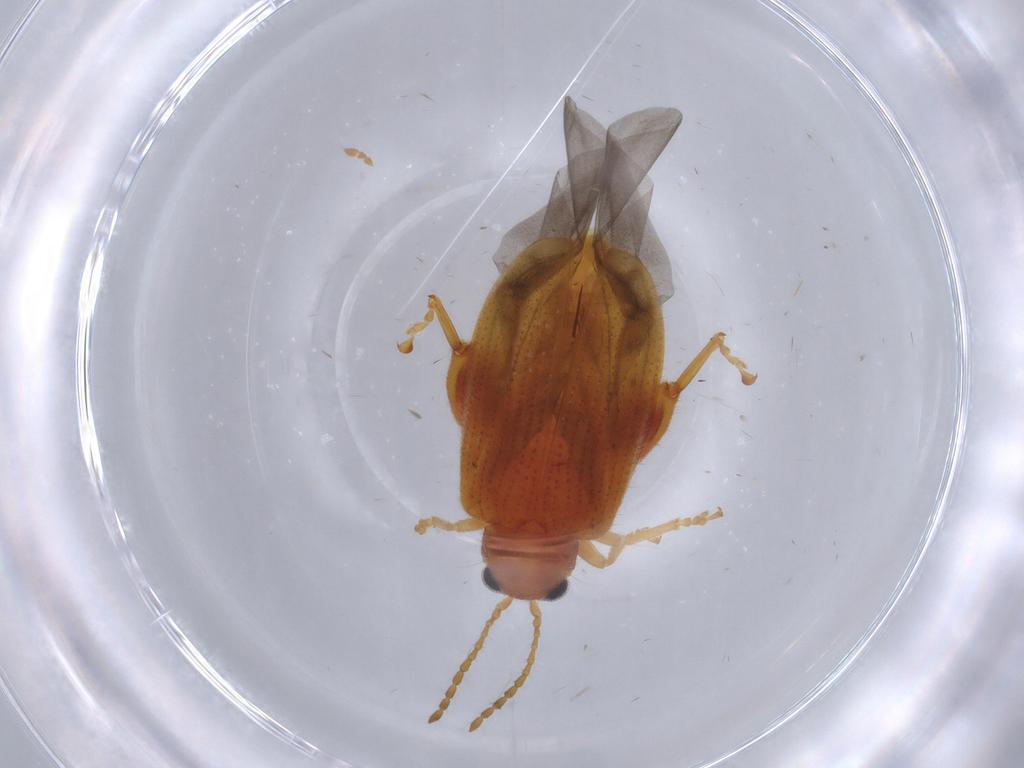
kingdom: Animalia
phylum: Arthropoda
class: Insecta
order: Coleoptera
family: Chrysomelidae
